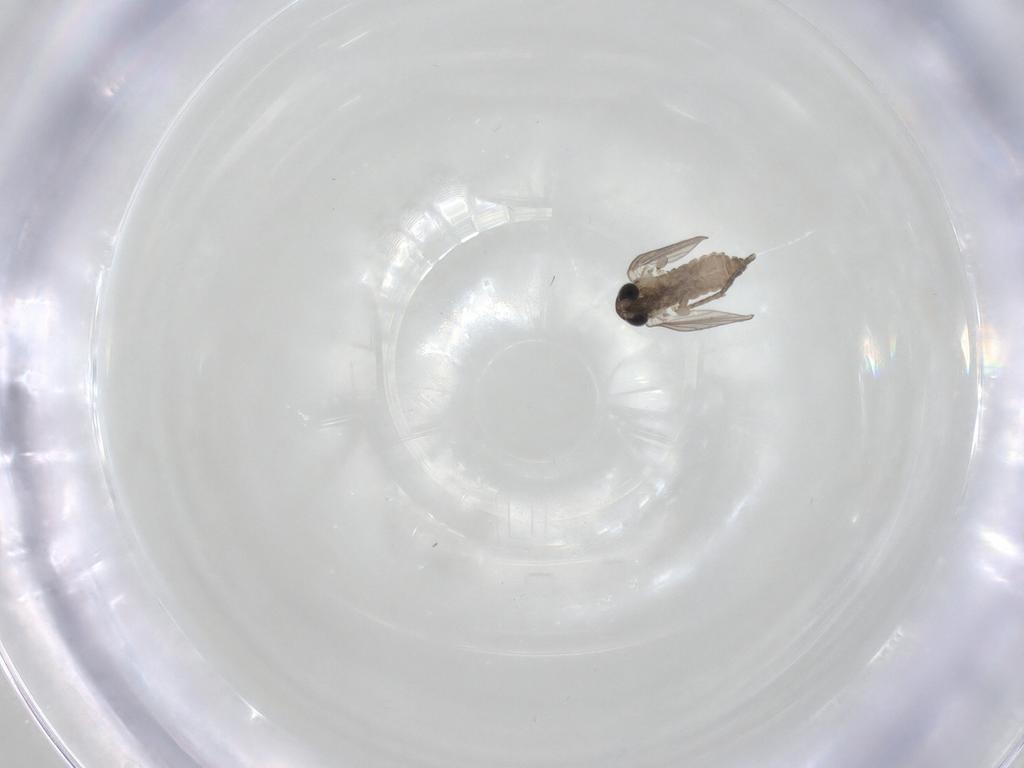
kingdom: Animalia
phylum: Arthropoda
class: Insecta
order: Diptera
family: Psychodidae
